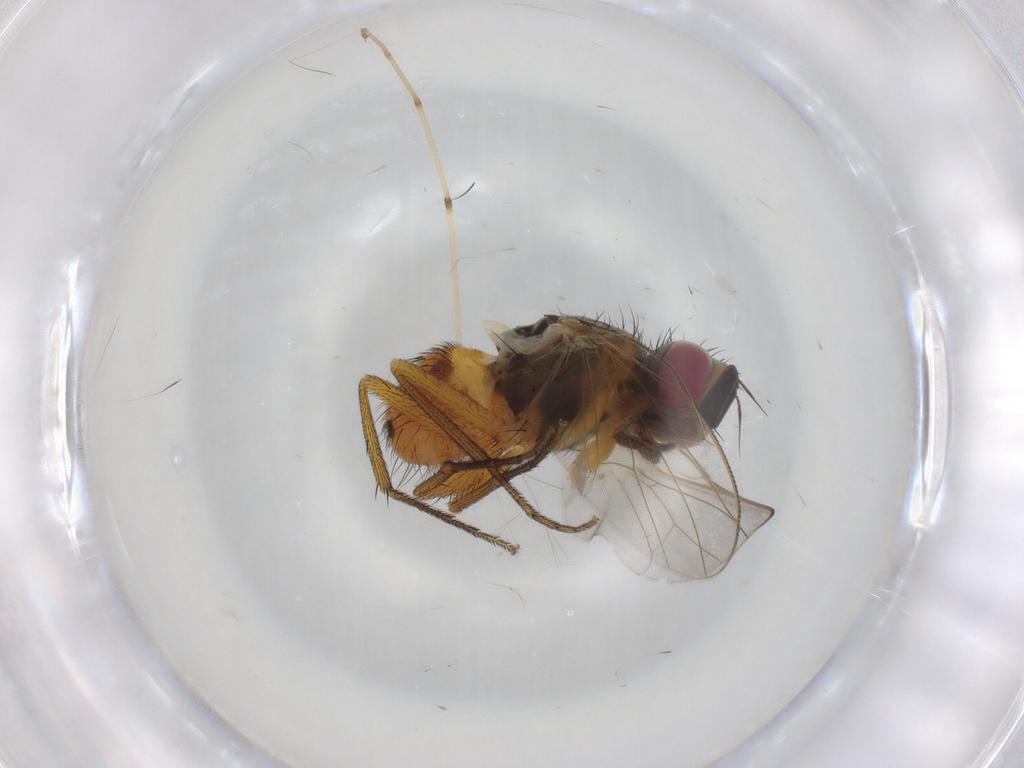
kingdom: Animalia
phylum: Arthropoda
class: Insecta
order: Diptera
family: Muscidae
